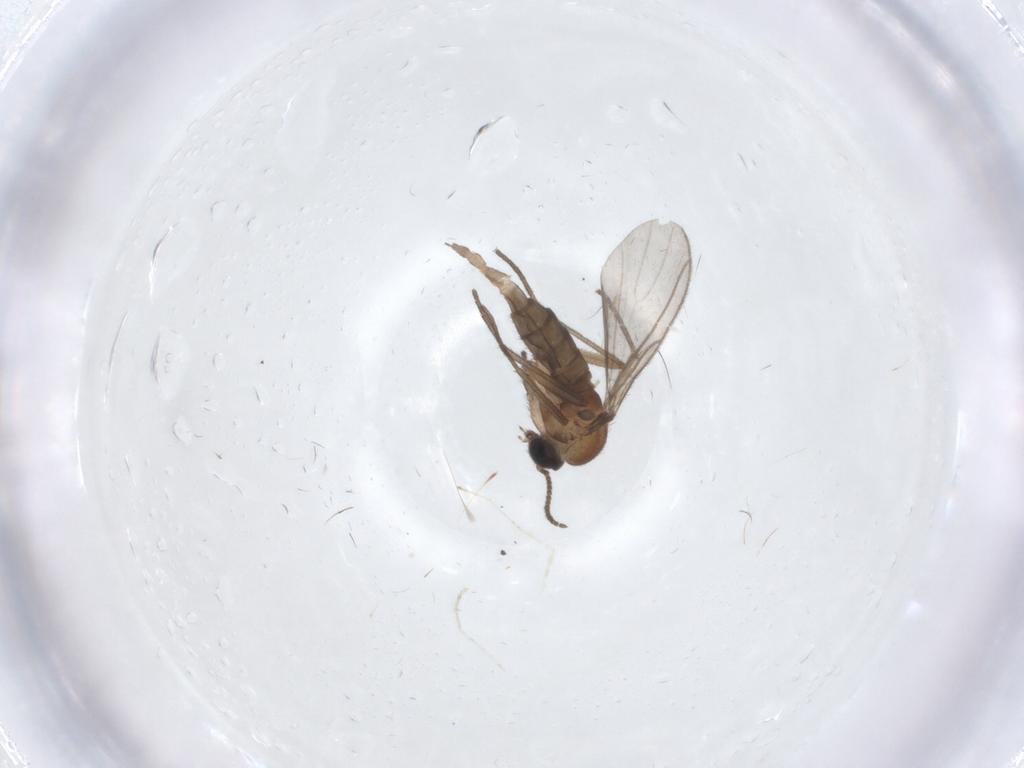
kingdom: Animalia
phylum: Arthropoda
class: Insecta
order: Diptera
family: Sciaridae
